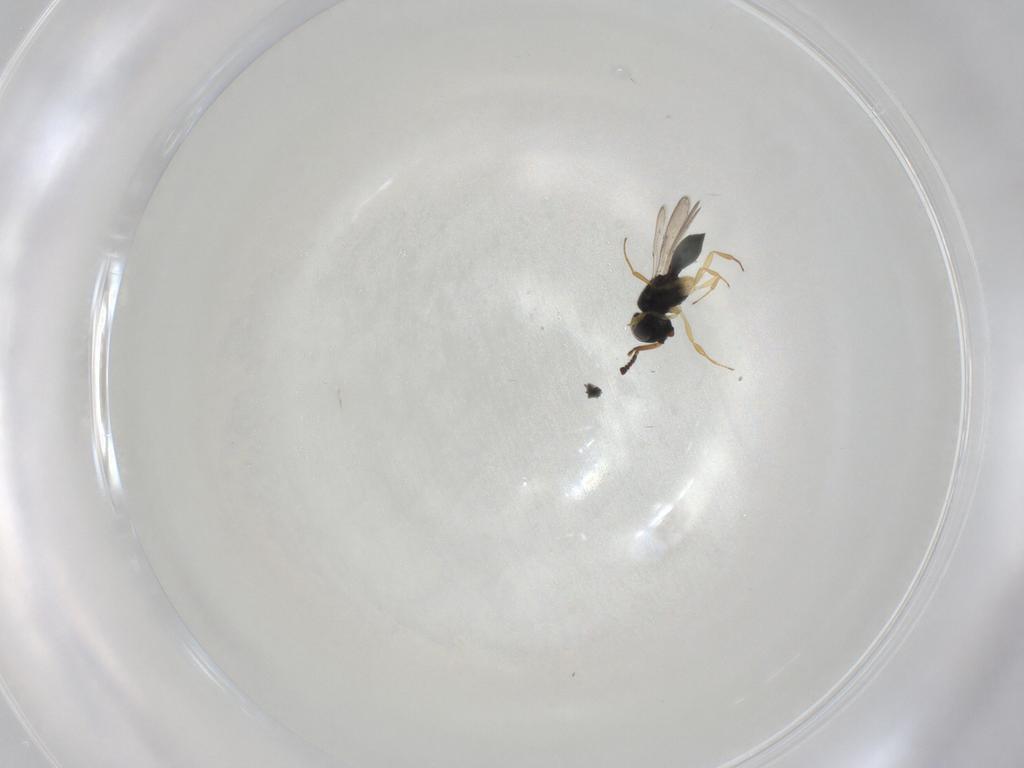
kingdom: Animalia
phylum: Arthropoda
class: Insecta
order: Hymenoptera
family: Scelionidae
